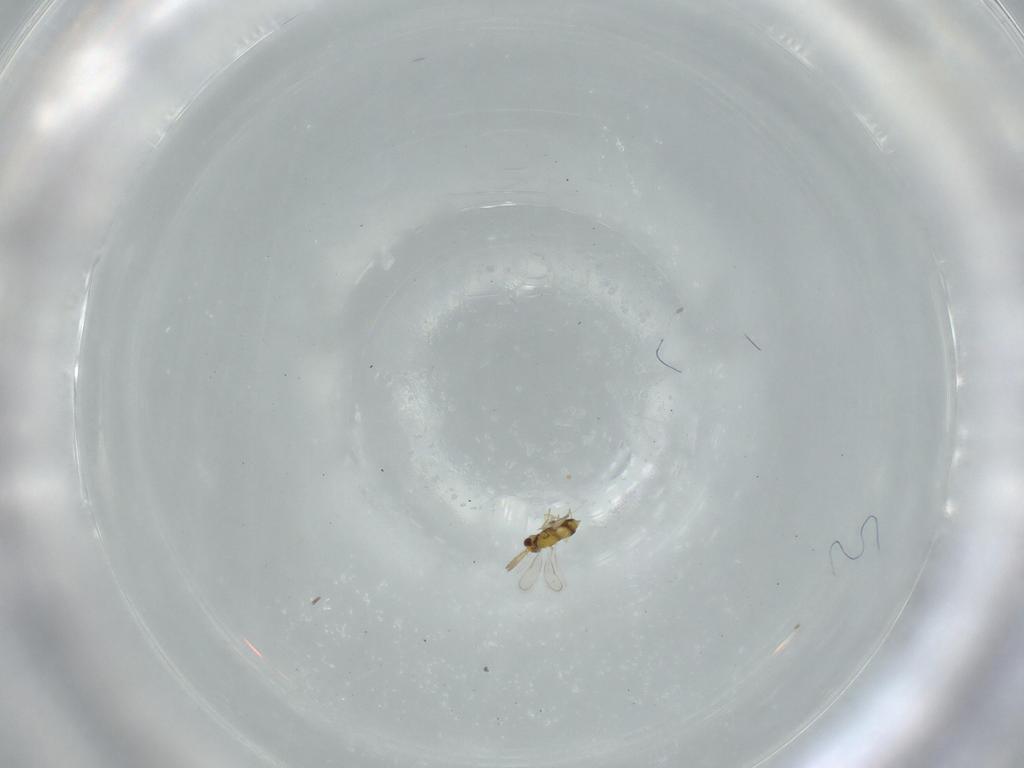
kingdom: Animalia
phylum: Arthropoda
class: Insecta
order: Hymenoptera
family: Aphelinidae
